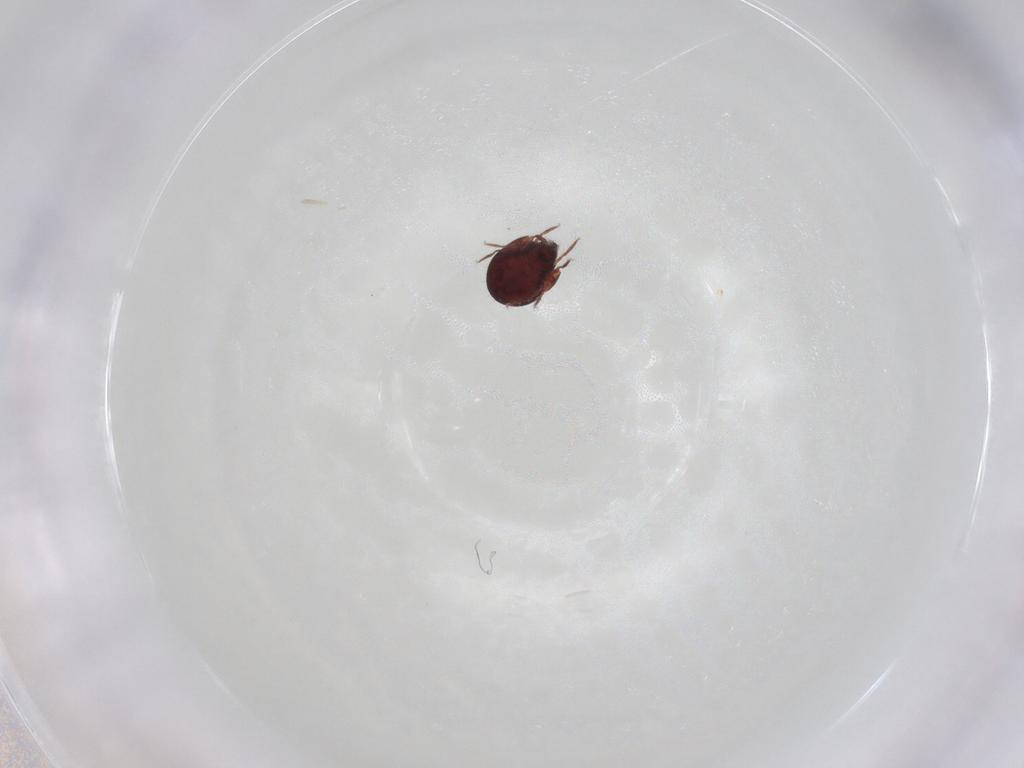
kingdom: Animalia
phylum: Arthropoda
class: Arachnida
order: Sarcoptiformes
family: Humerobatidae
